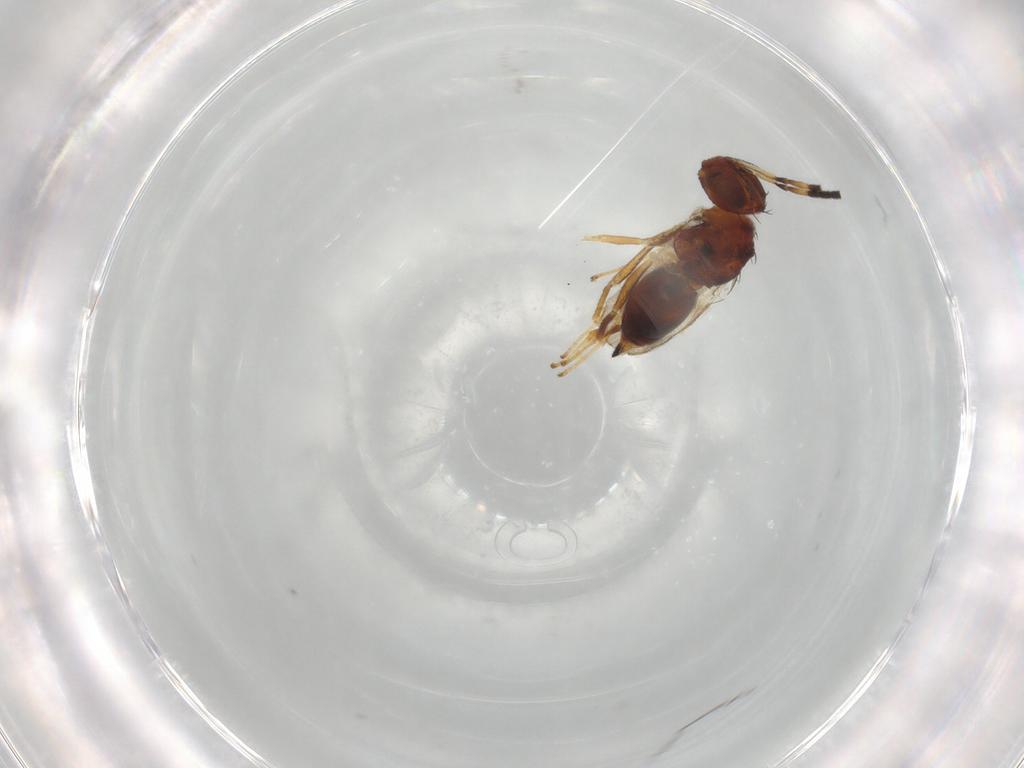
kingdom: Animalia
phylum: Arthropoda
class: Insecta
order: Hymenoptera
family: Diparidae
